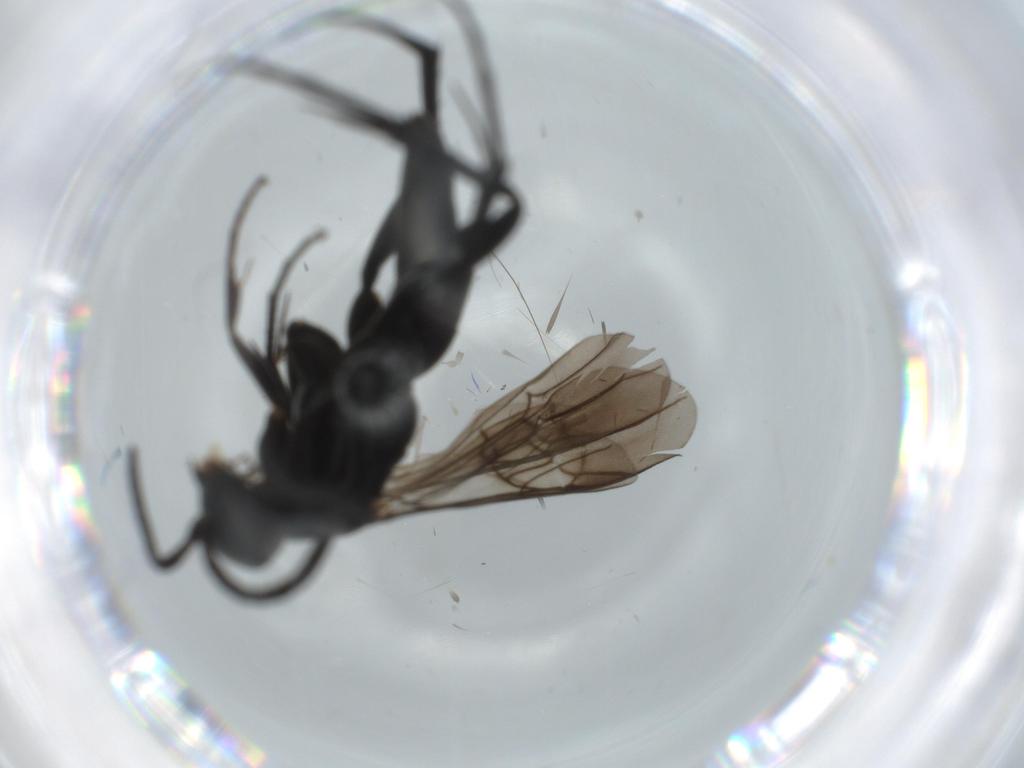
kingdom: Animalia
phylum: Arthropoda
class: Insecta
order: Hymenoptera
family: Pompilidae
